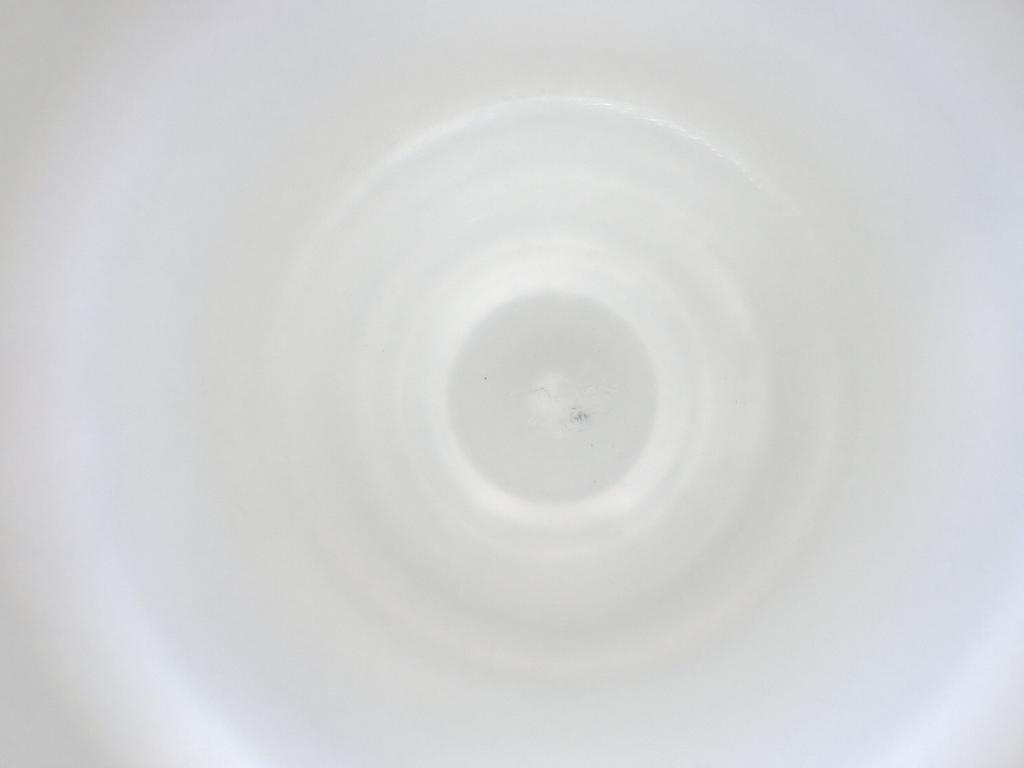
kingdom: Animalia
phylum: Arthropoda
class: Insecta
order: Diptera
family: Cecidomyiidae
